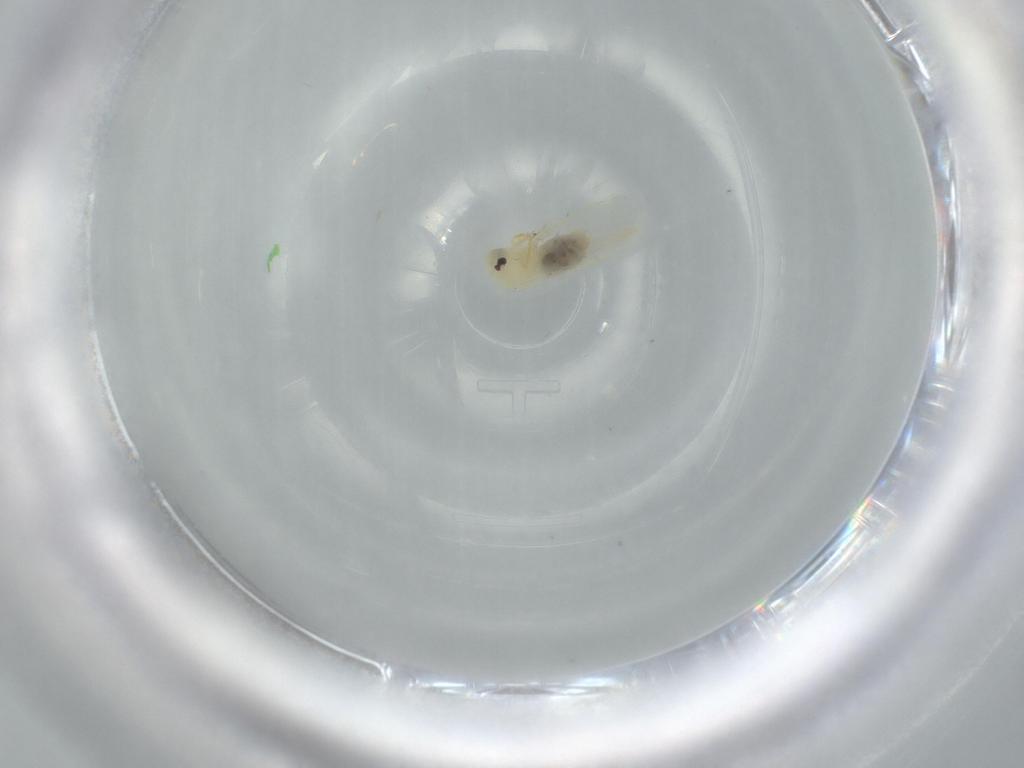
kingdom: Animalia
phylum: Arthropoda
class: Insecta
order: Hemiptera
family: Aleyrodidae
